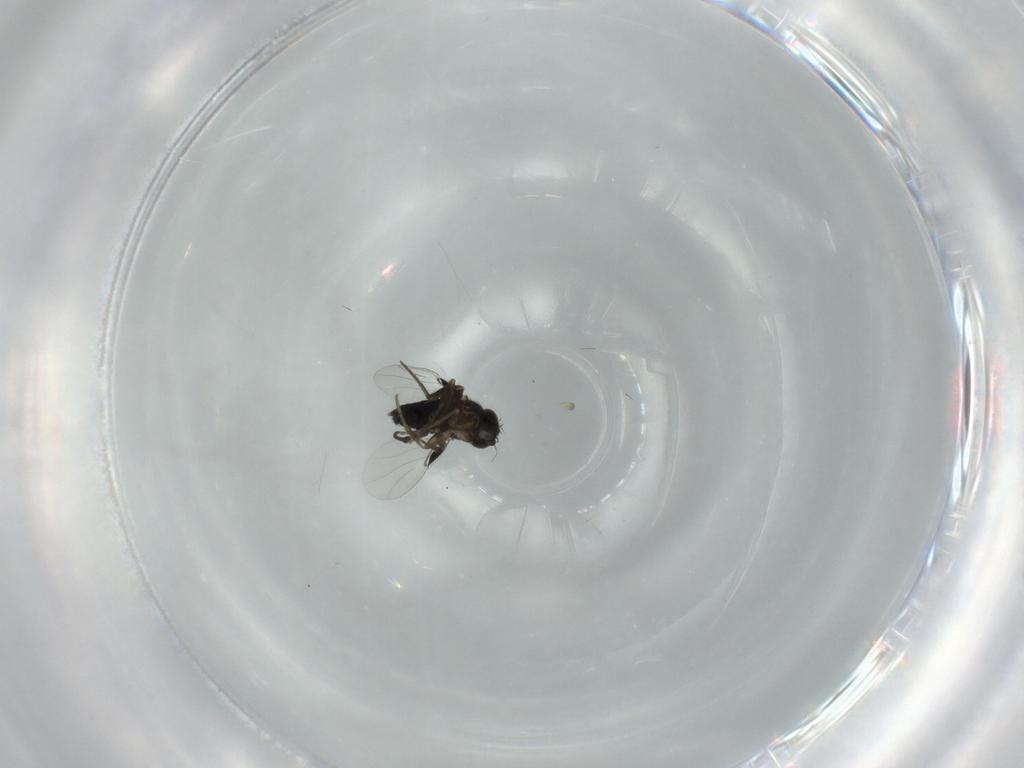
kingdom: Animalia
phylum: Arthropoda
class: Insecta
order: Diptera
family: Phoridae
